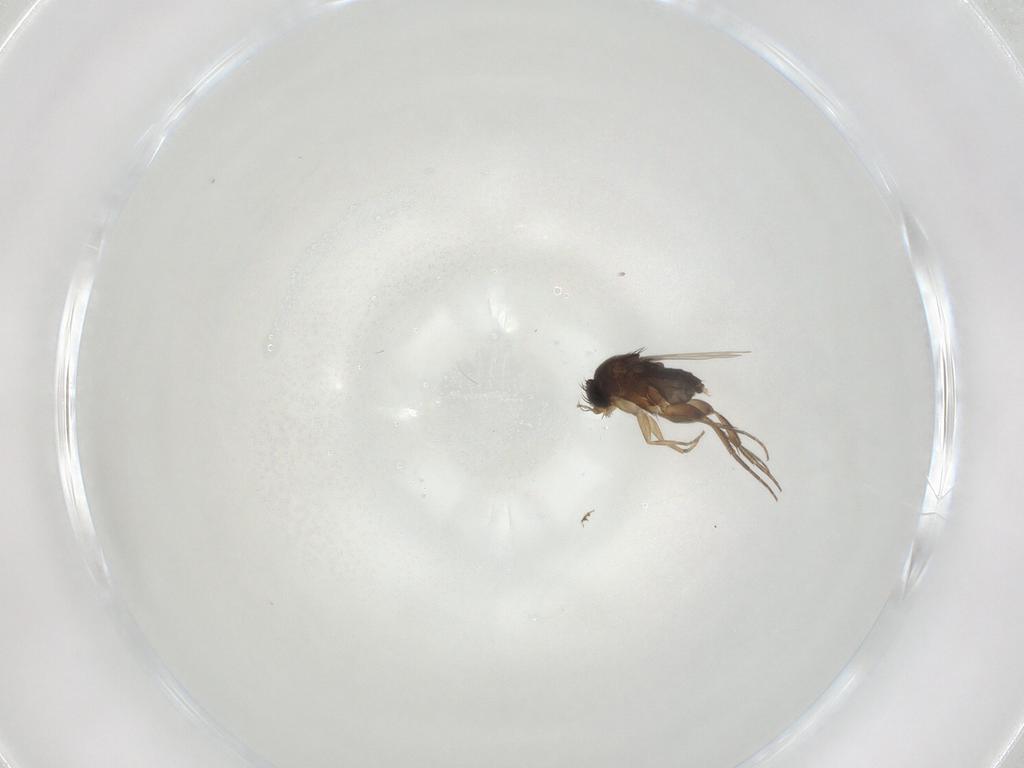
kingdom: Animalia
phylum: Arthropoda
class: Insecta
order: Diptera
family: Phoridae
